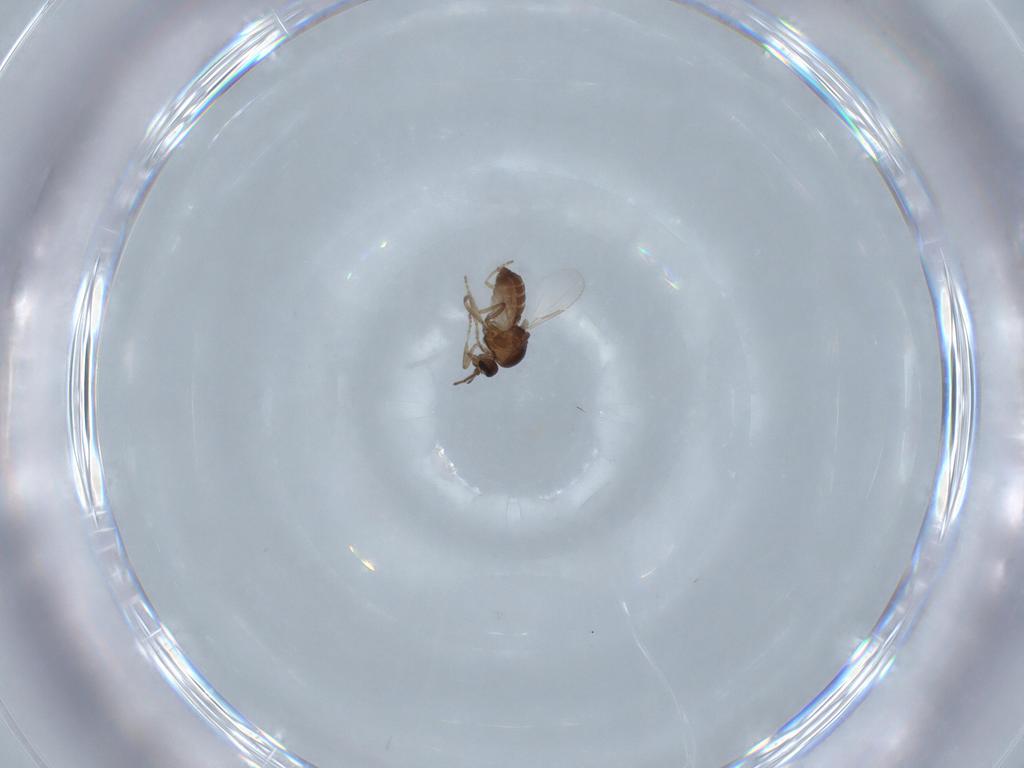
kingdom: Animalia
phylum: Arthropoda
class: Insecta
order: Diptera
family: Ceratopogonidae
